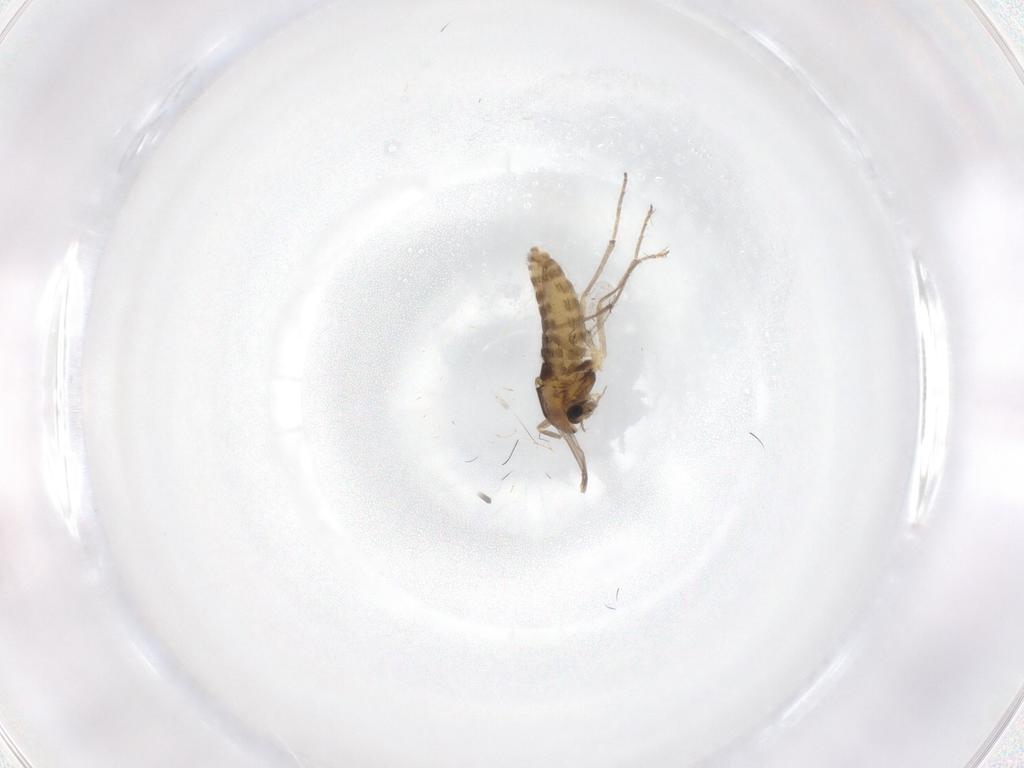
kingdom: Animalia
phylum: Arthropoda
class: Insecta
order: Diptera
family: Chironomidae
